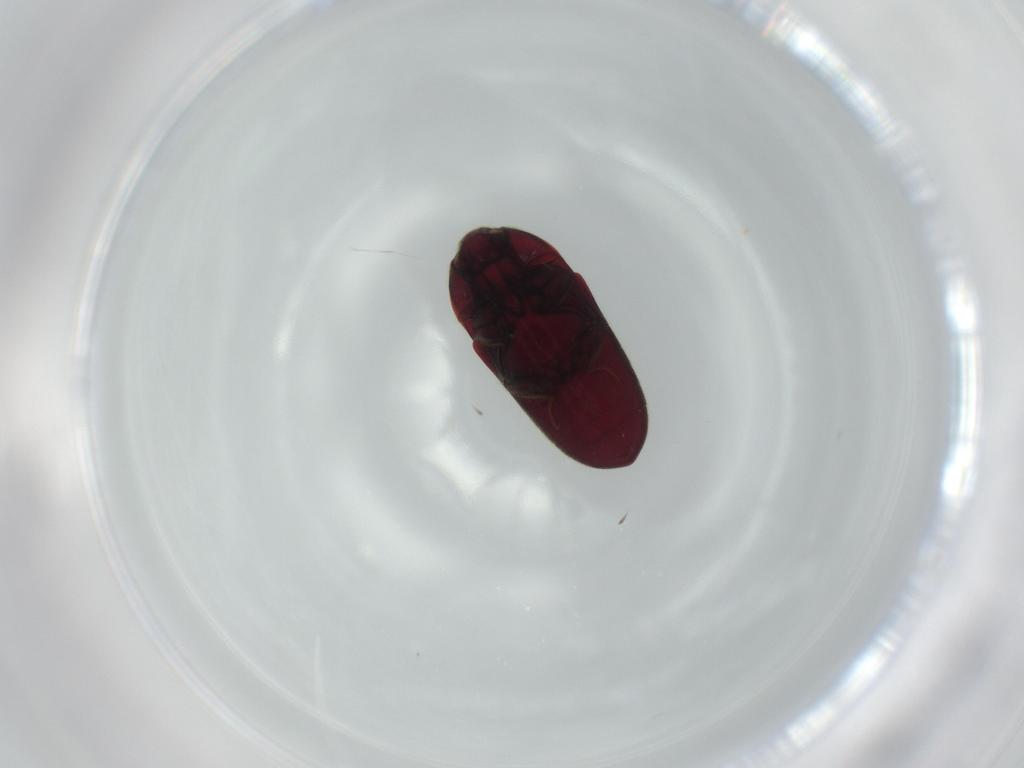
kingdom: Animalia
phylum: Arthropoda
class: Insecta
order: Coleoptera
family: Throscidae
